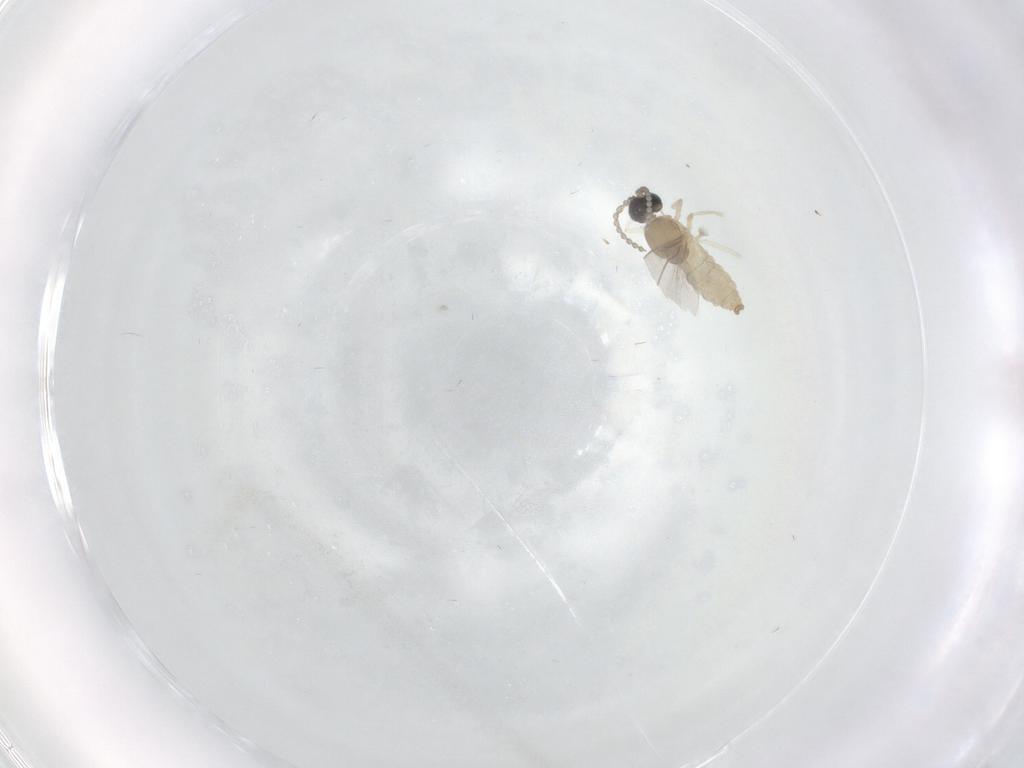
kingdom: Animalia
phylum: Arthropoda
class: Insecta
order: Diptera
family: Cecidomyiidae
